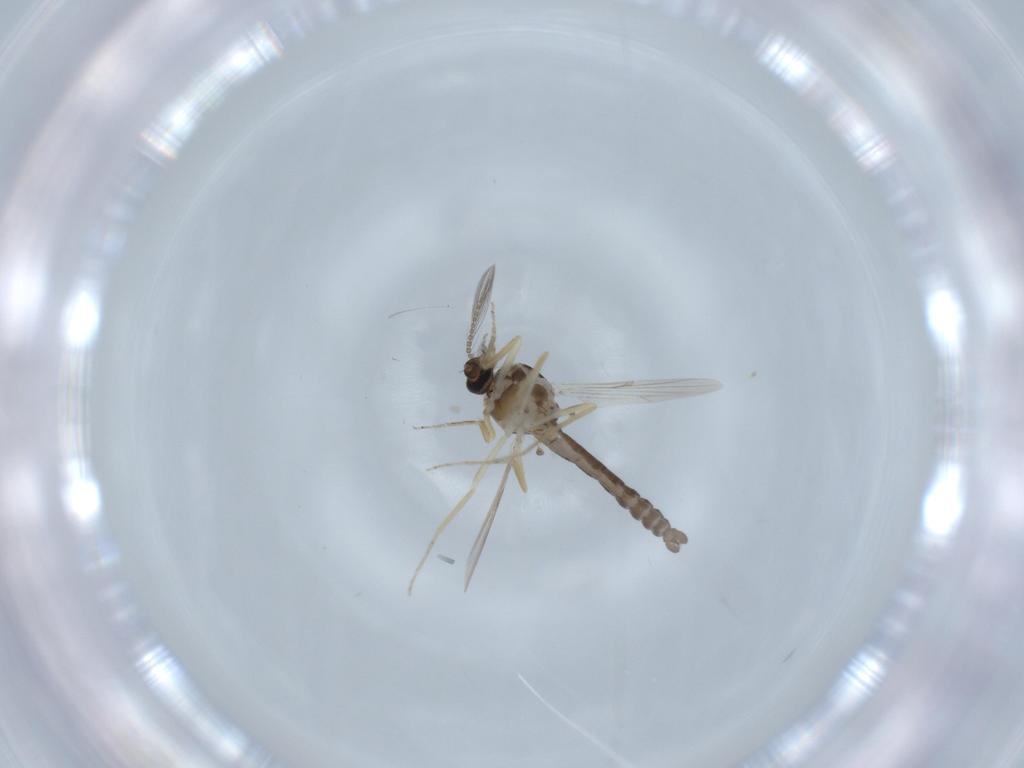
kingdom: Animalia
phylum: Arthropoda
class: Insecta
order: Diptera
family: Ceratopogonidae
